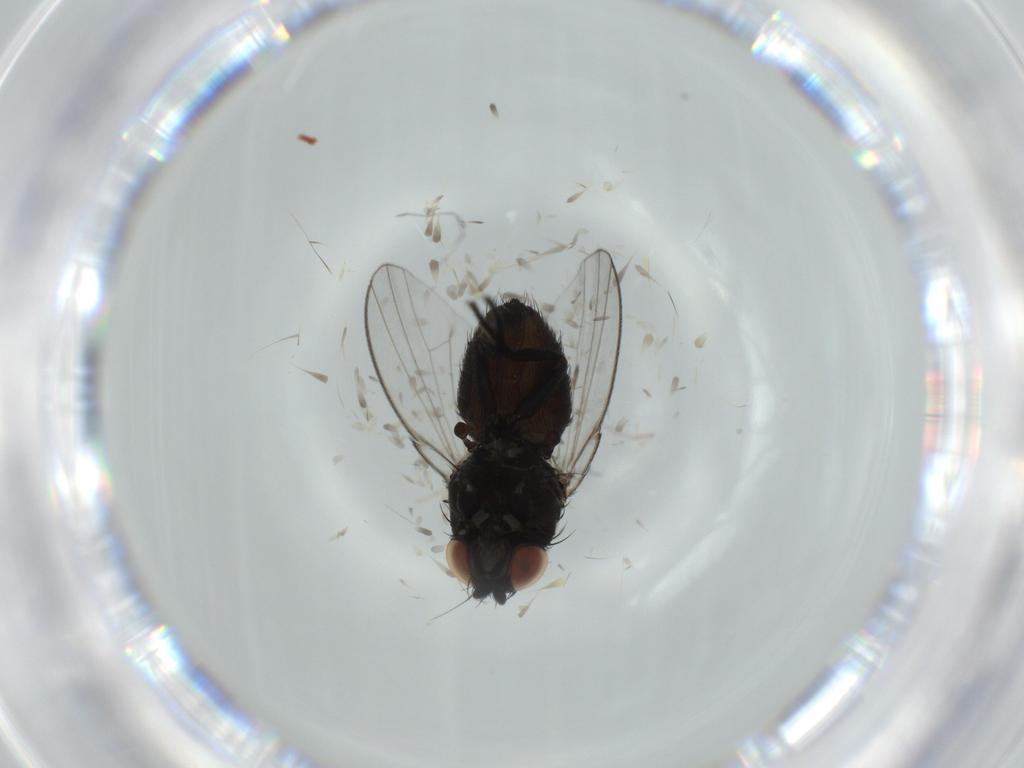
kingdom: Animalia
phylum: Arthropoda
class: Insecta
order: Diptera
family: Milichiidae
